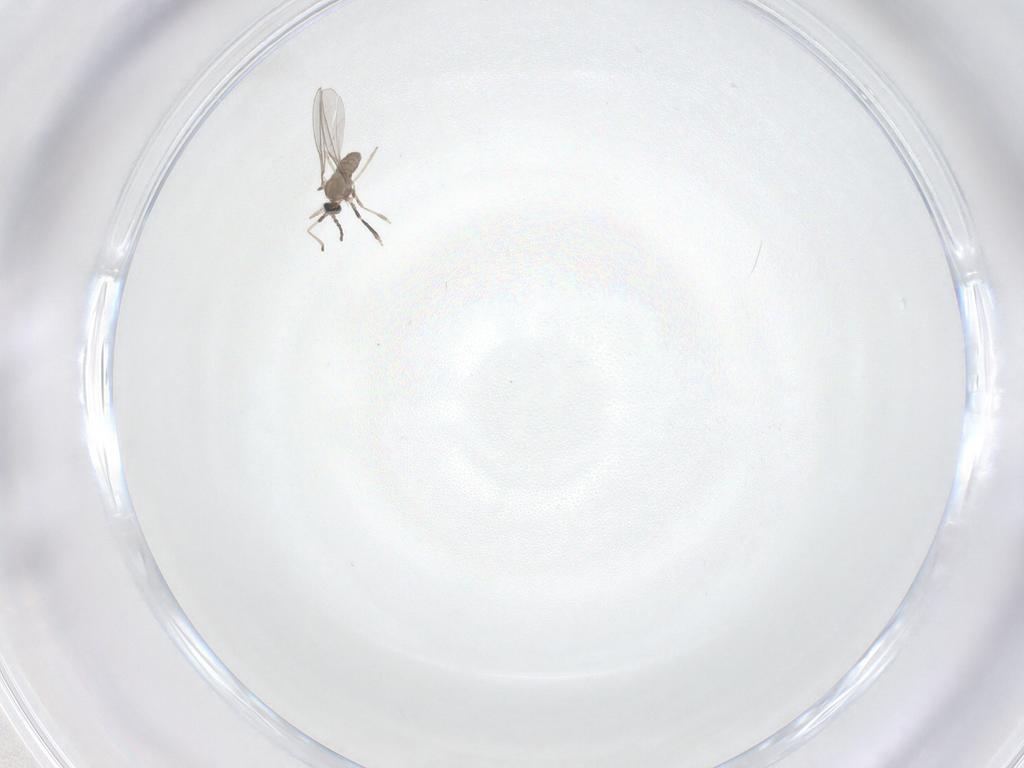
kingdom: Animalia
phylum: Arthropoda
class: Insecta
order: Diptera
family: Cecidomyiidae
